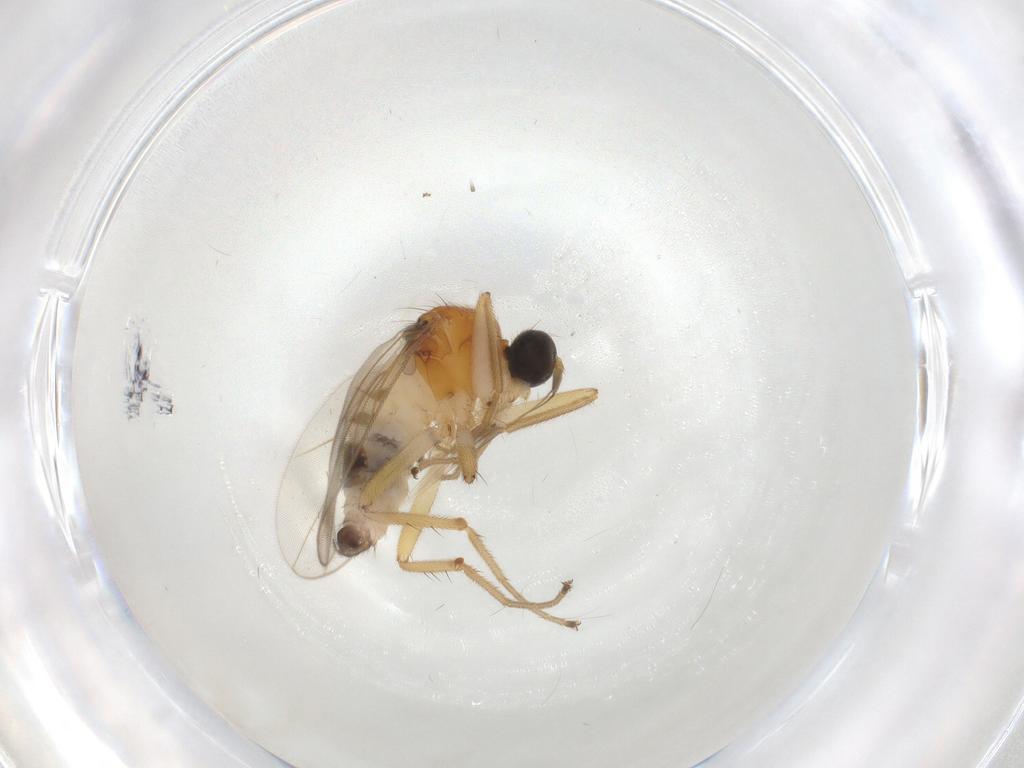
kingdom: Animalia
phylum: Arthropoda
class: Insecta
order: Diptera
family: Hybotidae
